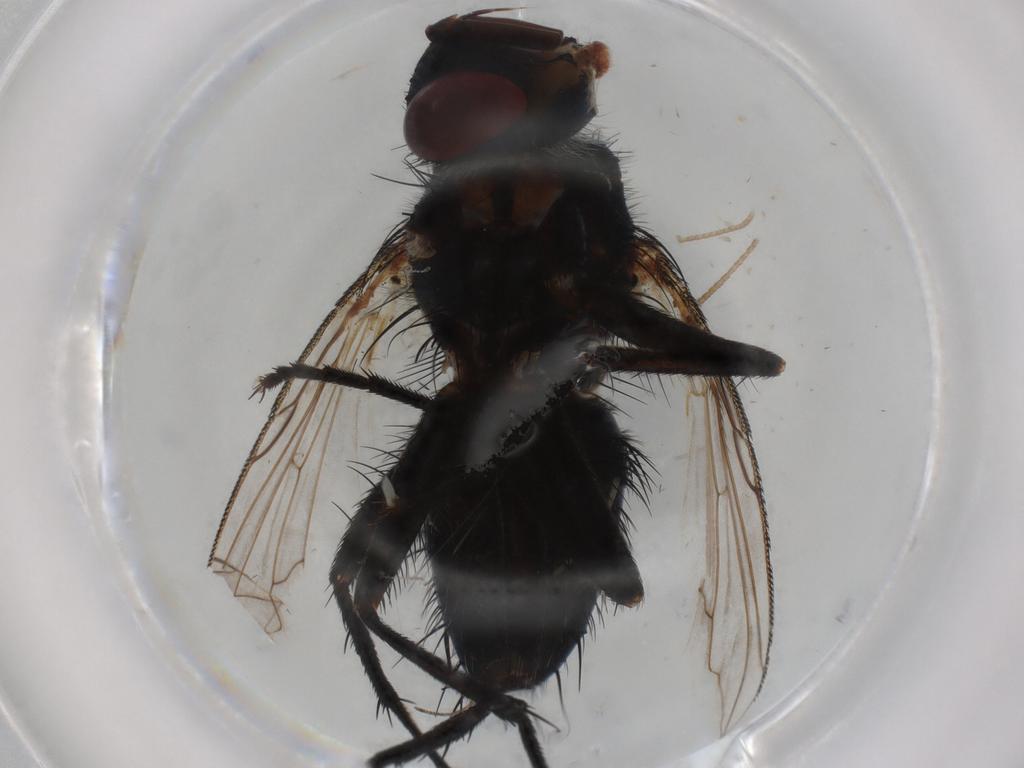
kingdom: Animalia
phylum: Arthropoda
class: Insecta
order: Diptera
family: Tachinidae
